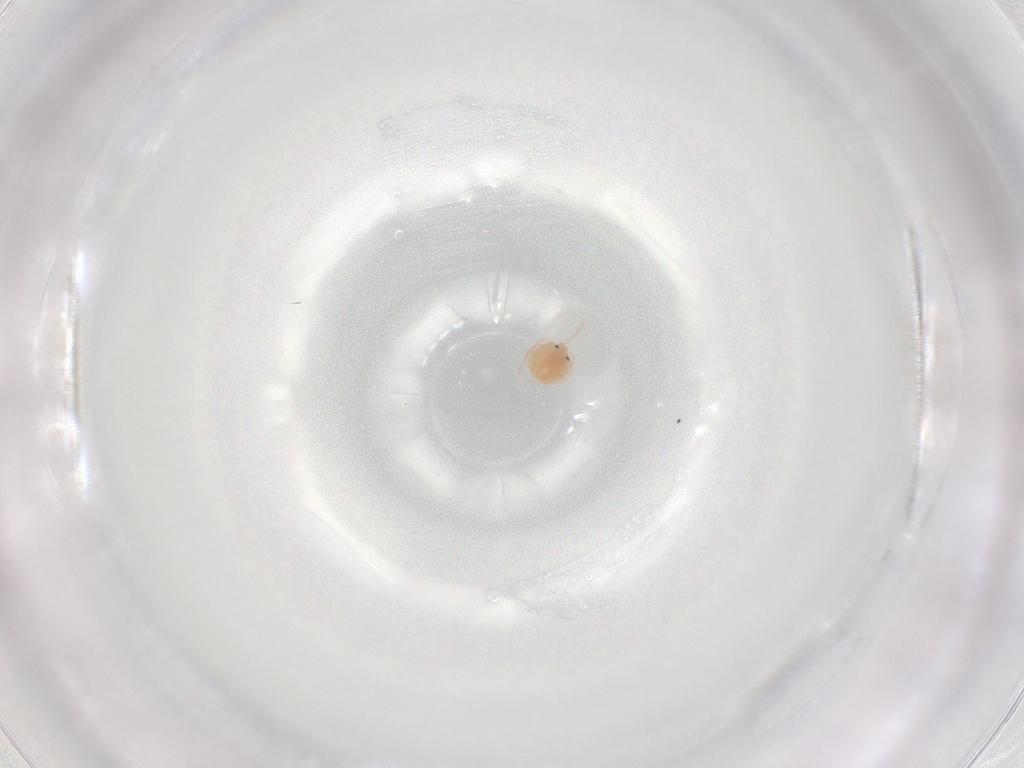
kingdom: Animalia
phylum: Arthropoda
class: Arachnida
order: Trombidiformes
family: Lebertiidae
